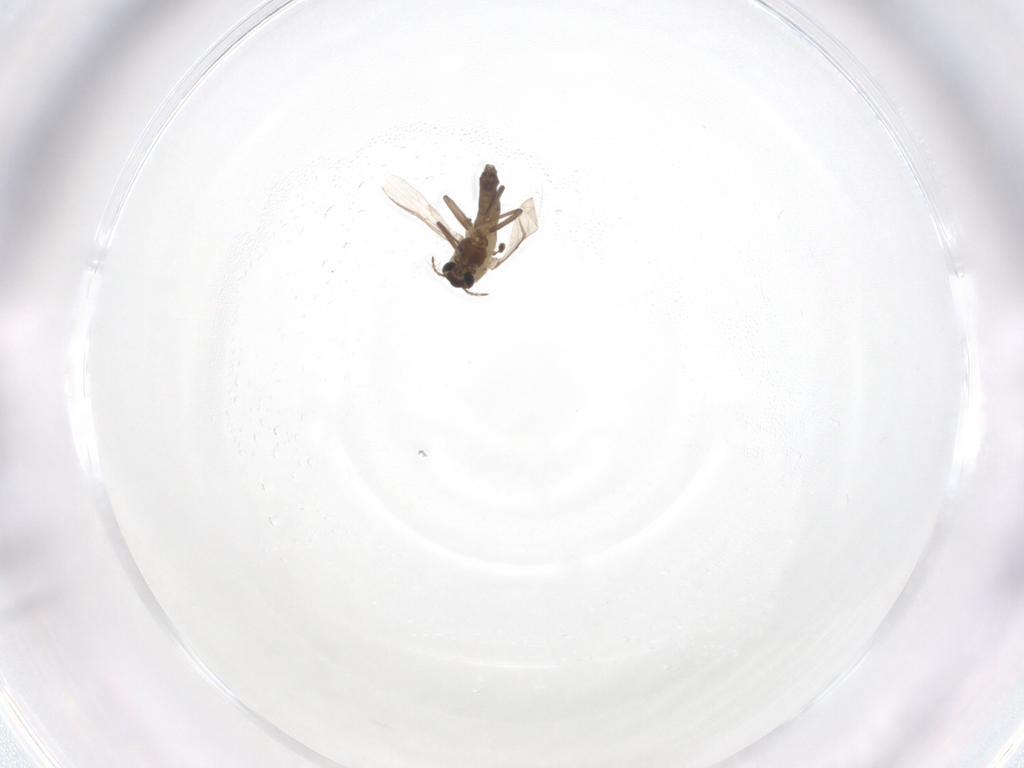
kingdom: Animalia
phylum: Arthropoda
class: Insecta
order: Diptera
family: Chironomidae
